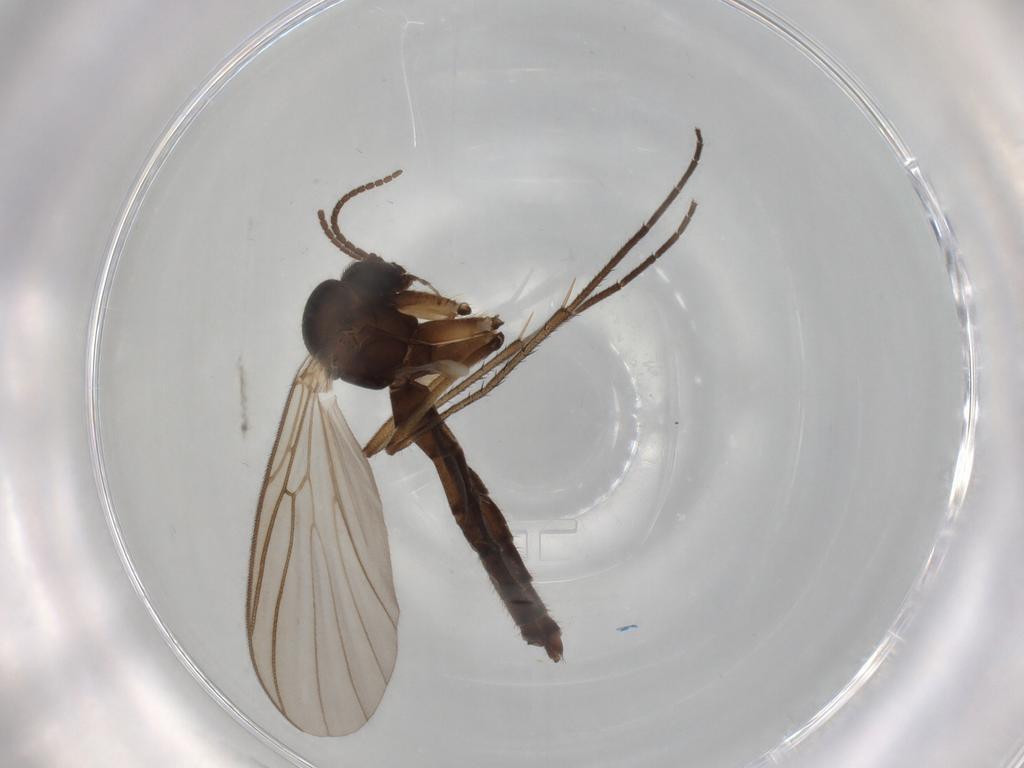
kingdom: Animalia
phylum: Arthropoda
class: Insecta
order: Diptera
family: Mycetophilidae
